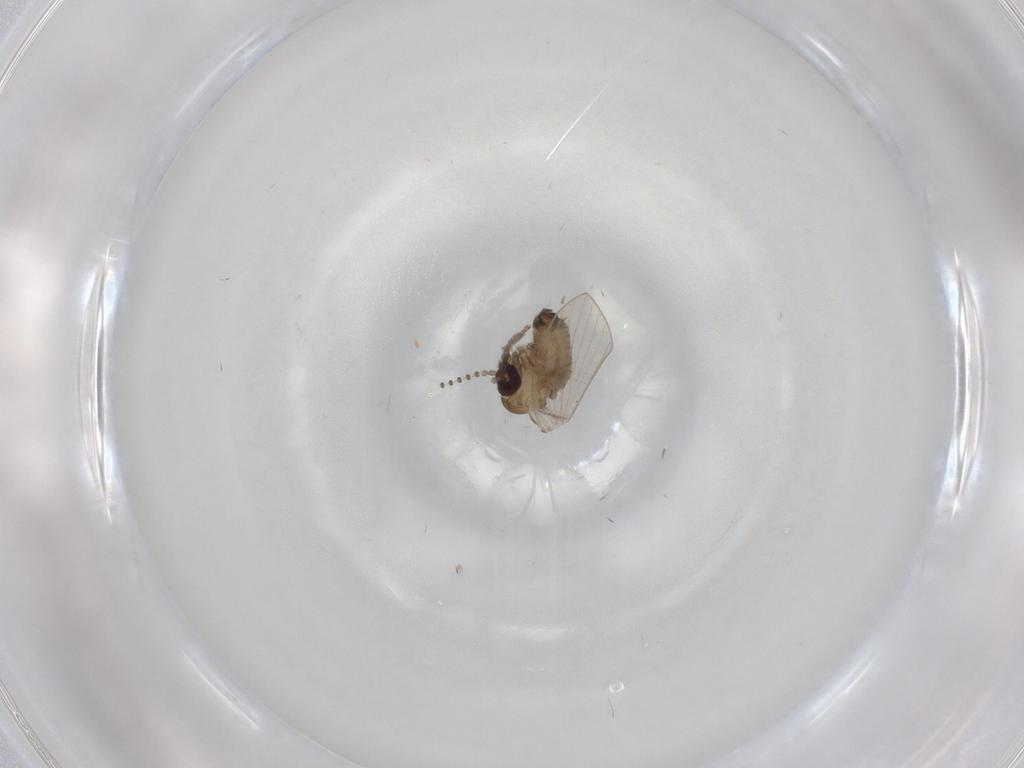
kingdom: Animalia
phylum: Arthropoda
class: Insecta
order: Diptera
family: Psychodidae
